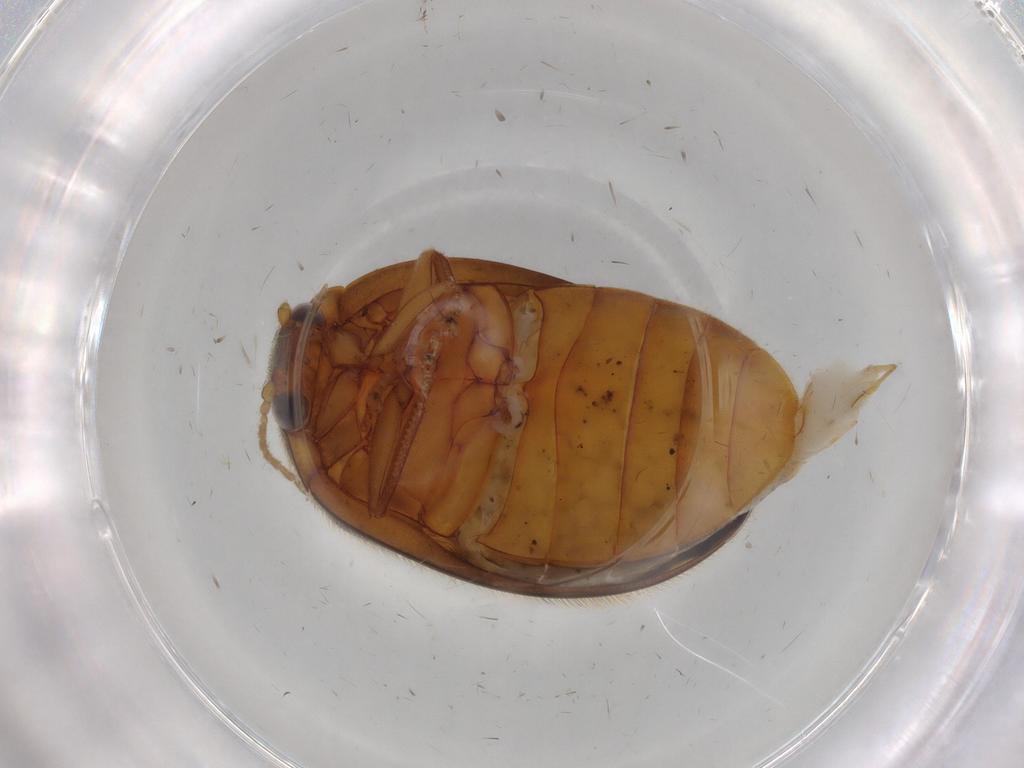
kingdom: Animalia
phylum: Arthropoda
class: Insecta
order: Coleoptera
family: Scirtidae
